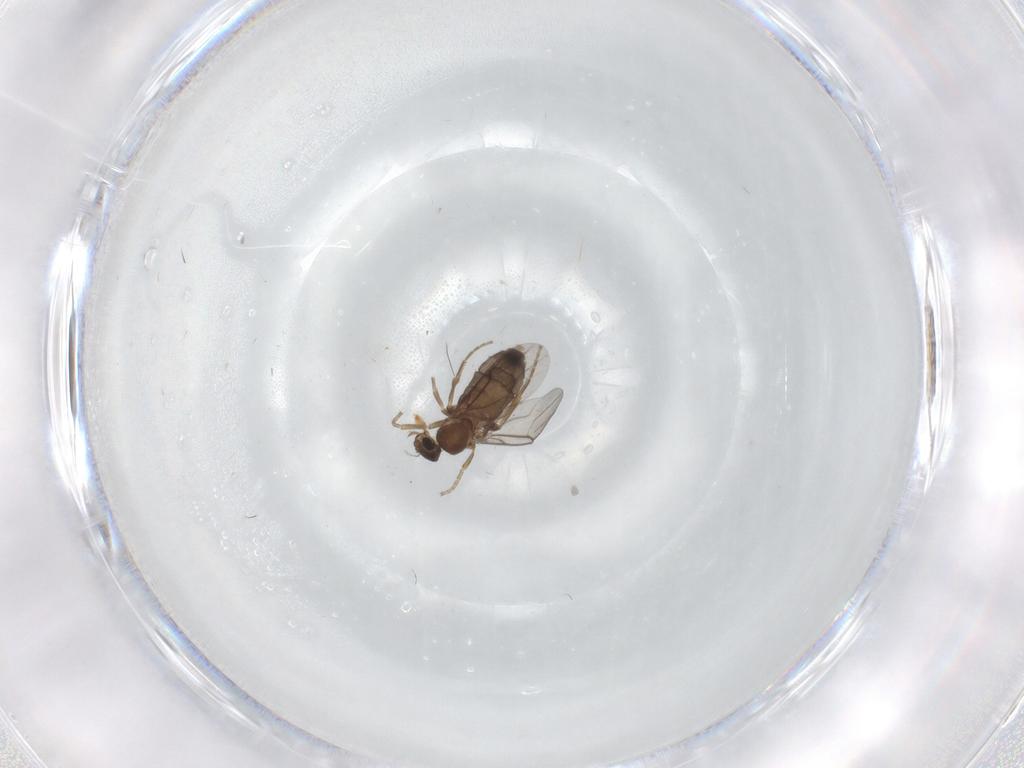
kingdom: Animalia
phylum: Arthropoda
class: Insecta
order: Diptera
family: Phoridae
